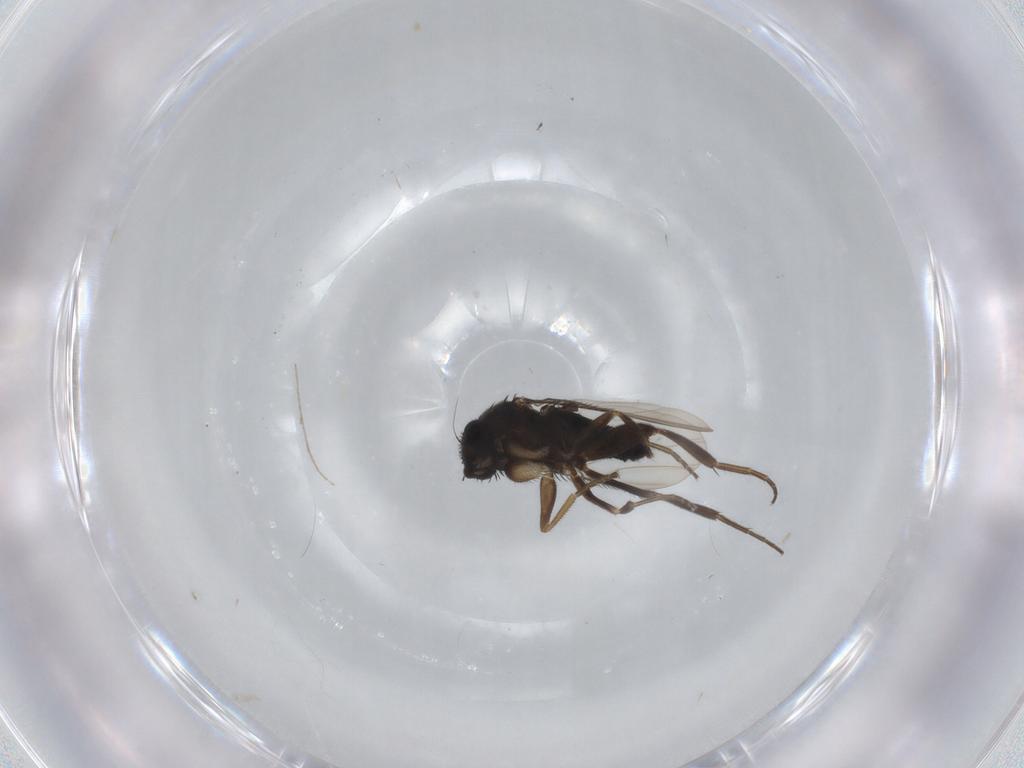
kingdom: Animalia
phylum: Arthropoda
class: Insecta
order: Diptera
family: Phoridae
